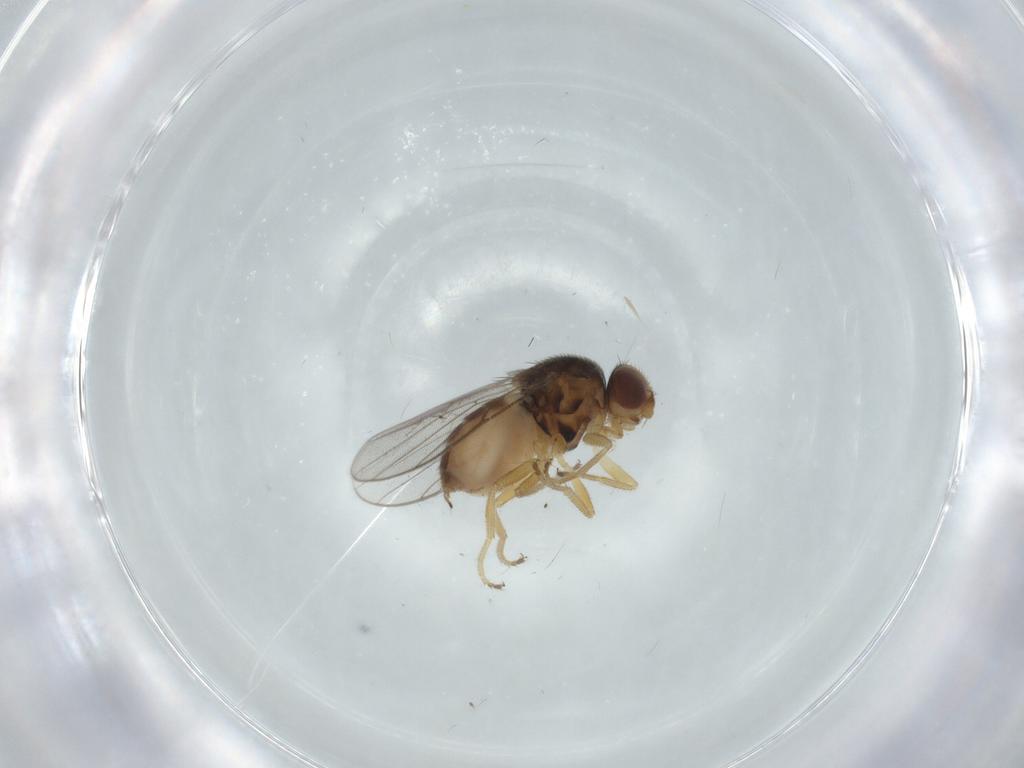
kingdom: Animalia
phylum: Arthropoda
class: Insecta
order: Diptera
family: Chloropidae
